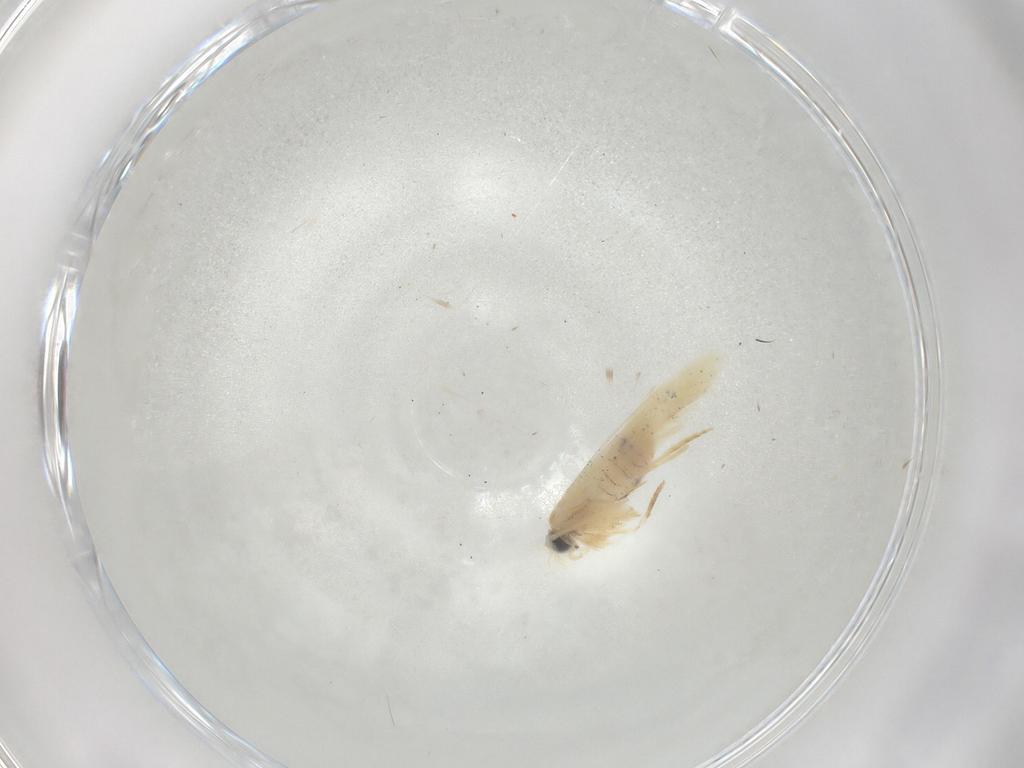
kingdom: Animalia
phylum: Arthropoda
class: Insecta
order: Lepidoptera
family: Nepticulidae
